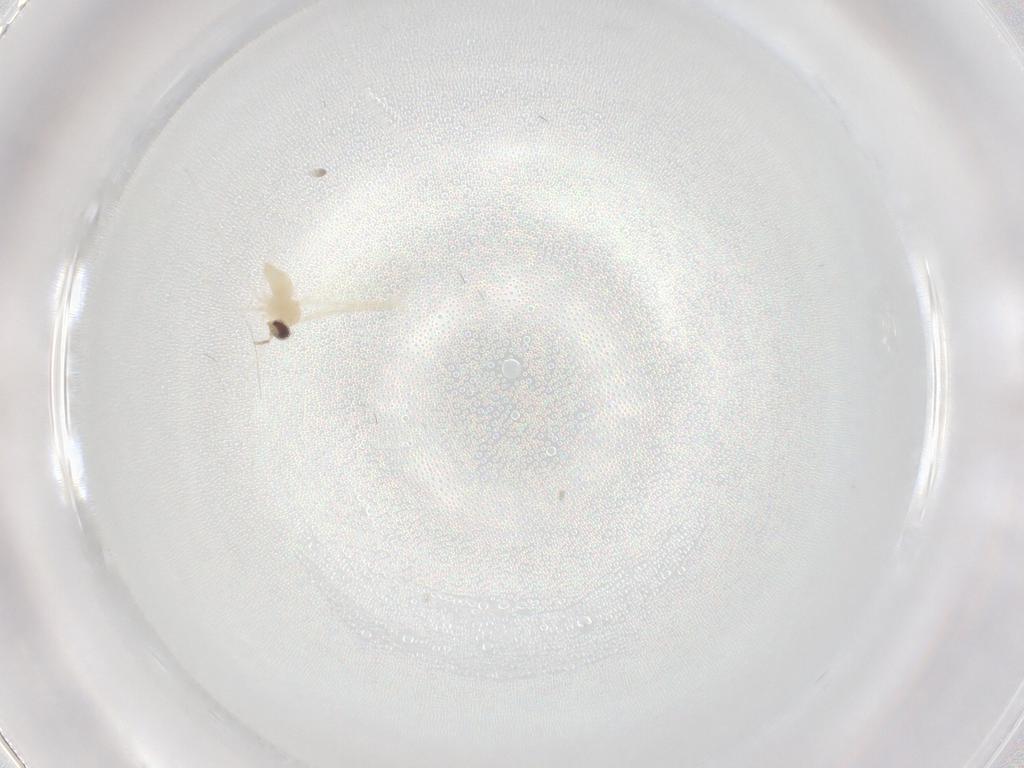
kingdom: Animalia
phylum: Arthropoda
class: Insecta
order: Diptera
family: Cecidomyiidae
